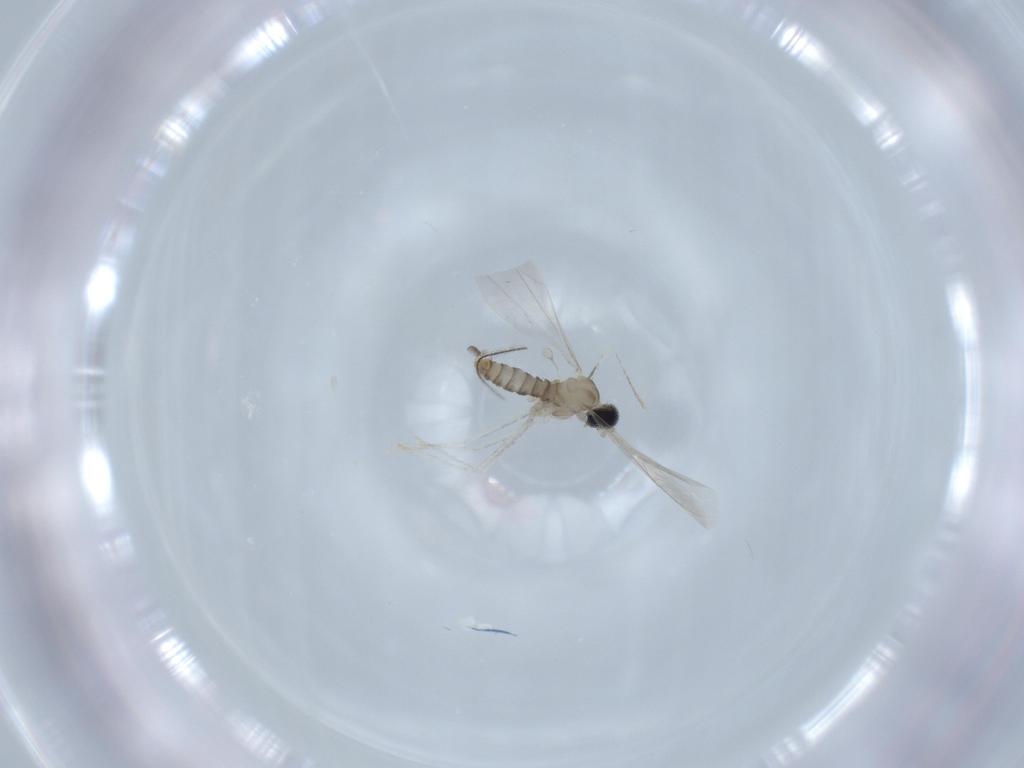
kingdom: Animalia
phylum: Arthropoda
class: Insecta
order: Diptera
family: Cecidomyiidae
